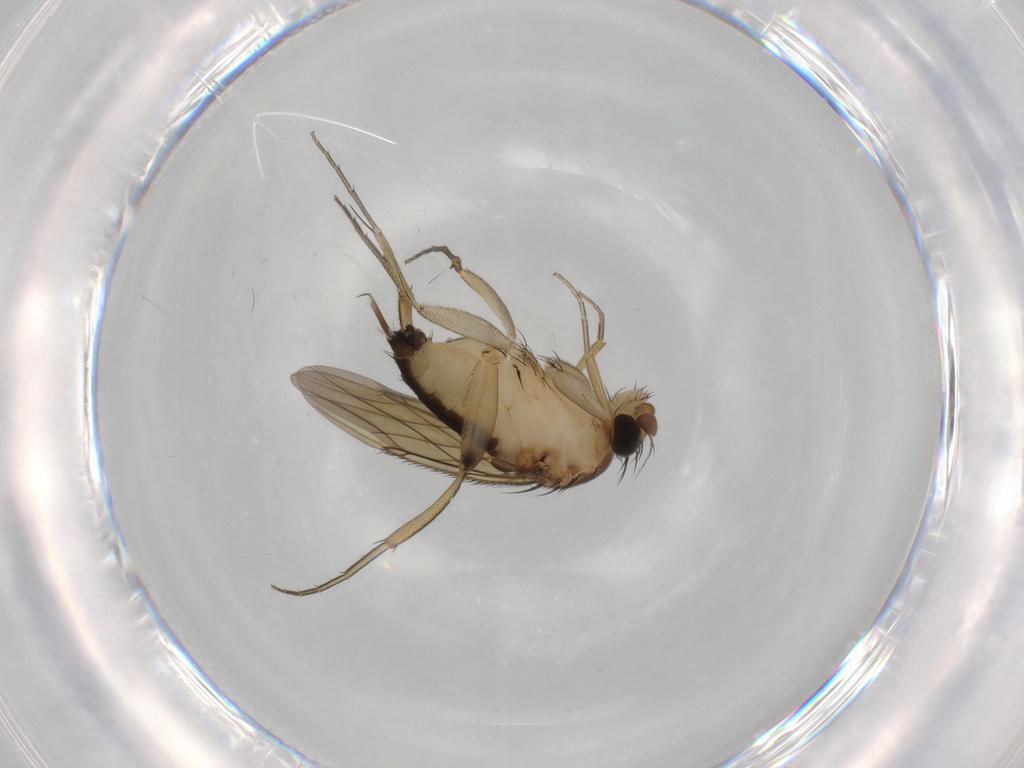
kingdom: Animalia
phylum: Arthropoda
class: Insecta
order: Diptera
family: Phoridae
